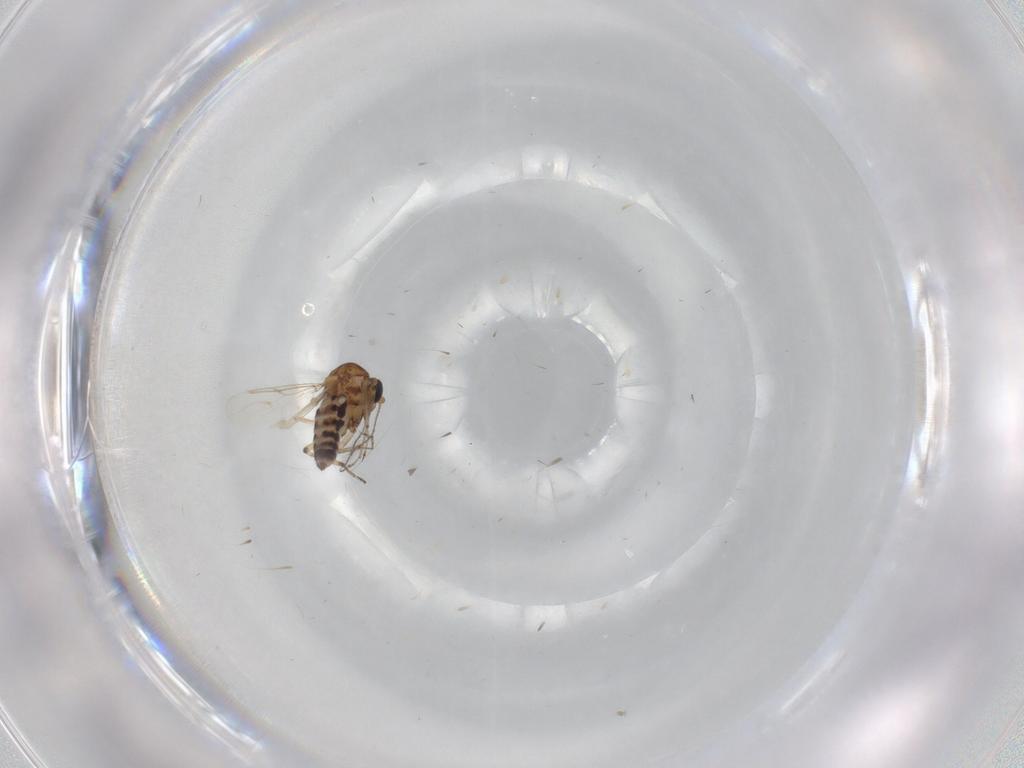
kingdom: Animalia
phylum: Arthropoda
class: Insecta
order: Diptera
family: Ceratopogonidae
